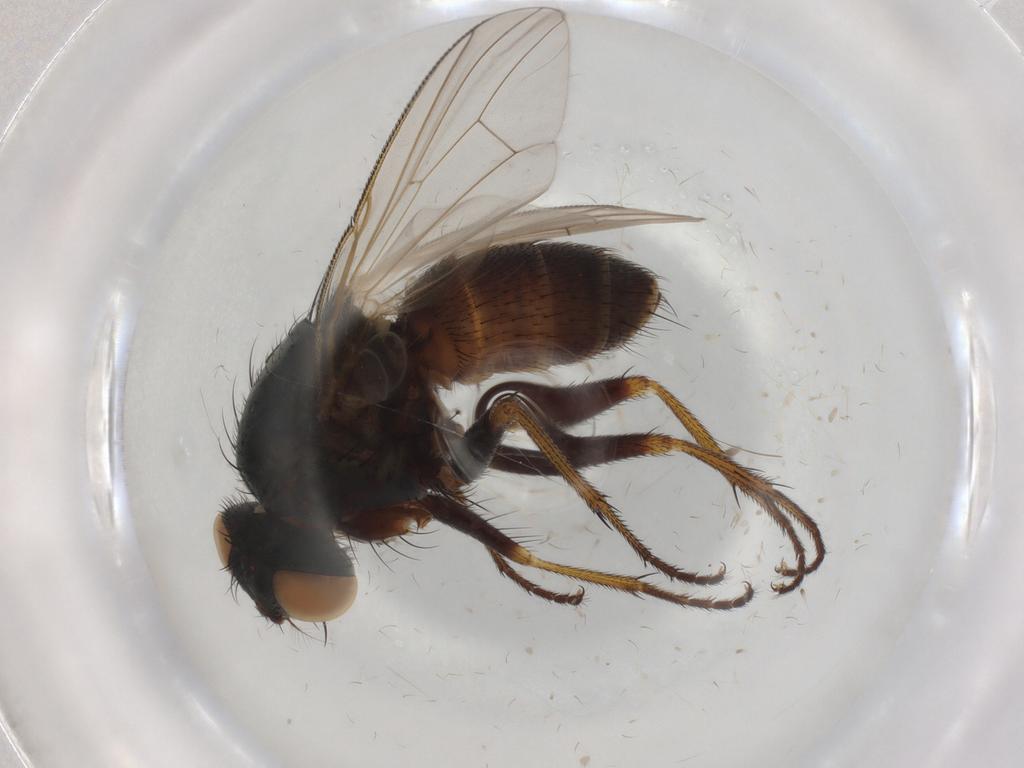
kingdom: Animalia
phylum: Arthropoda
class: Insecta
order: Diptera
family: Muscidae
